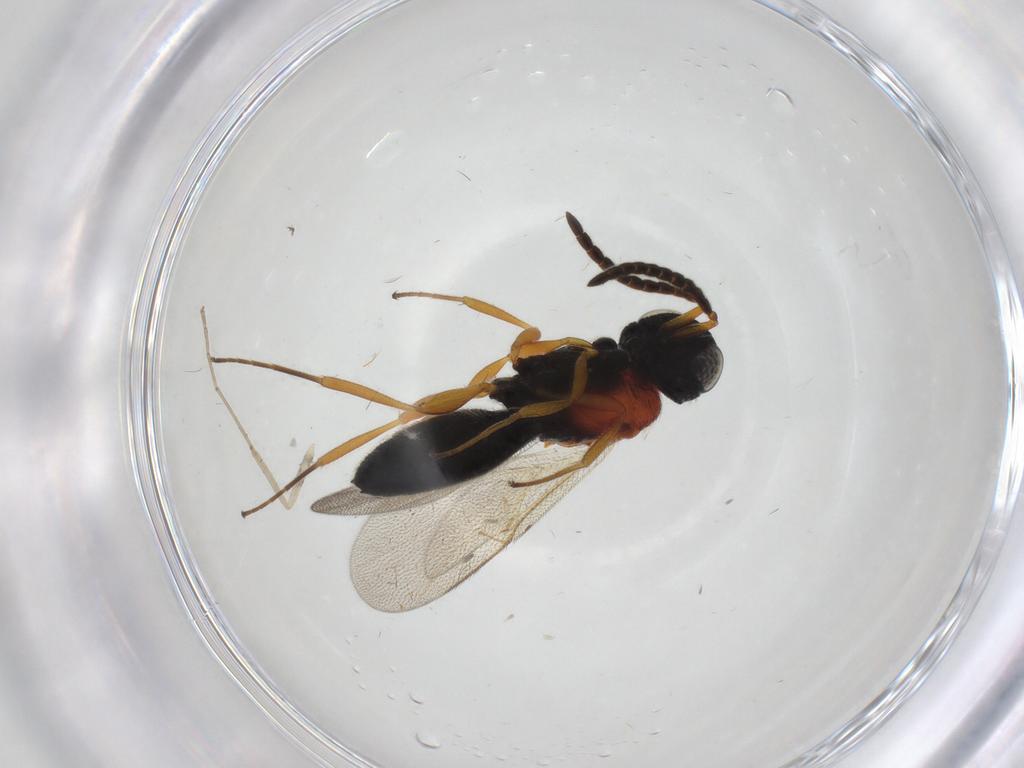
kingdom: Animalia
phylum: Arthropoda
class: Insecta
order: Hymenoptera
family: Scelionidae
